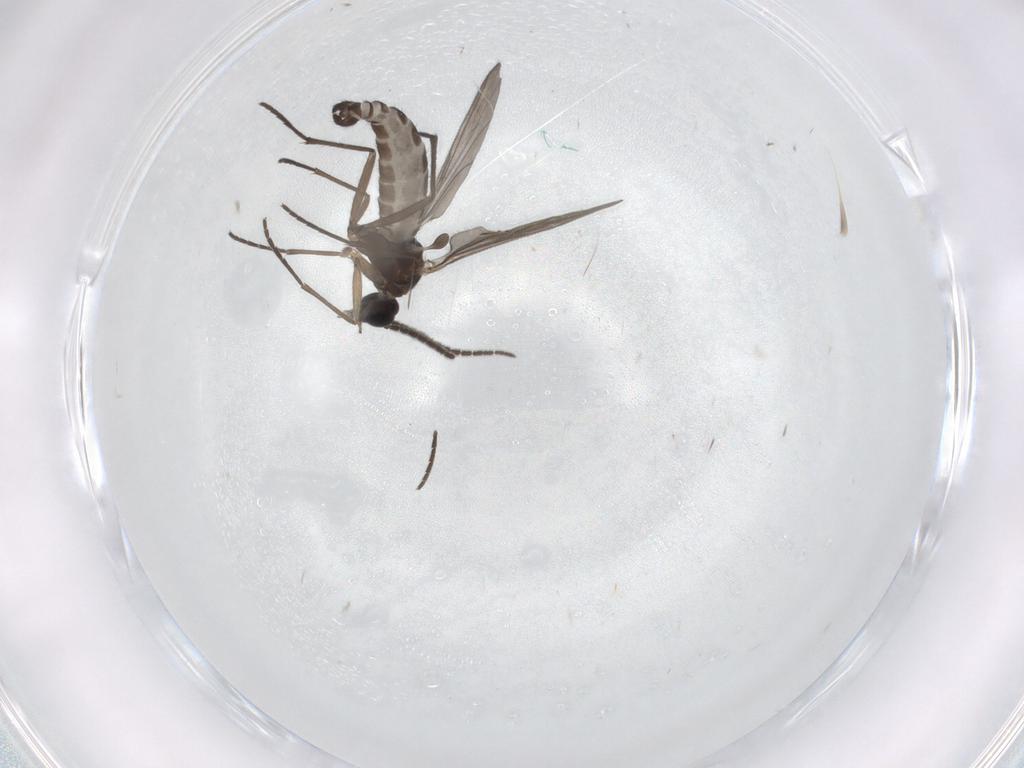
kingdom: Animalia
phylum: Arthropoda
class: Insecta
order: Diptera
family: Sciaridae
